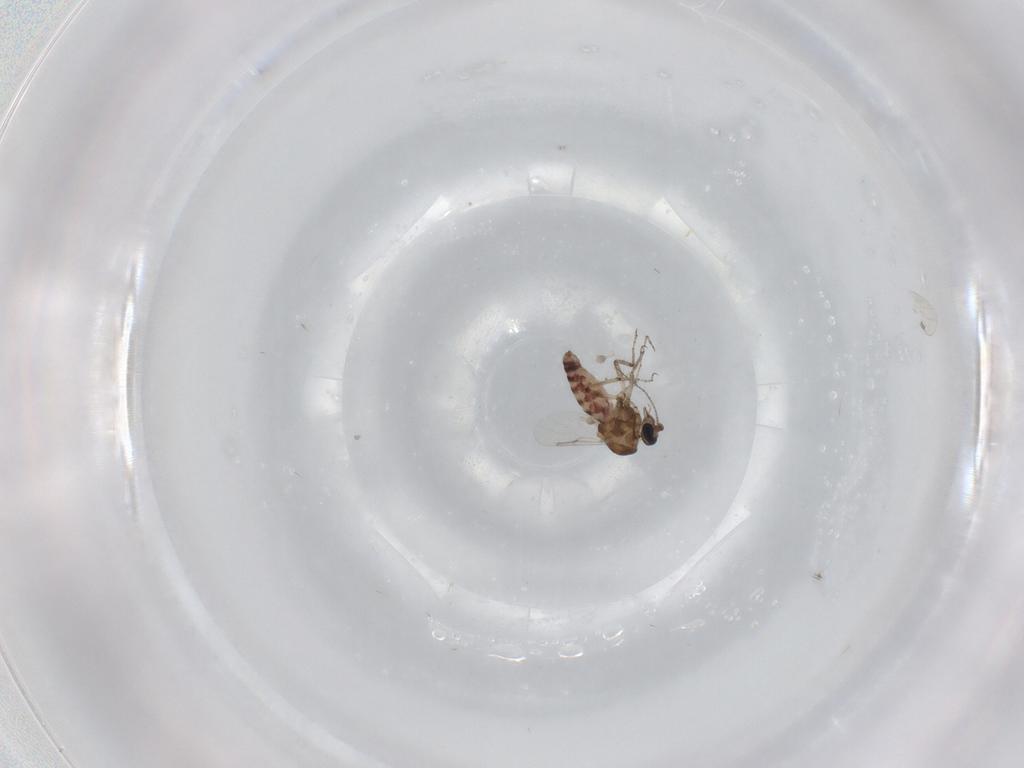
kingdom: Animalia
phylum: Arthropoda
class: Insecta
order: Diptera
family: Ceratopogonidae
